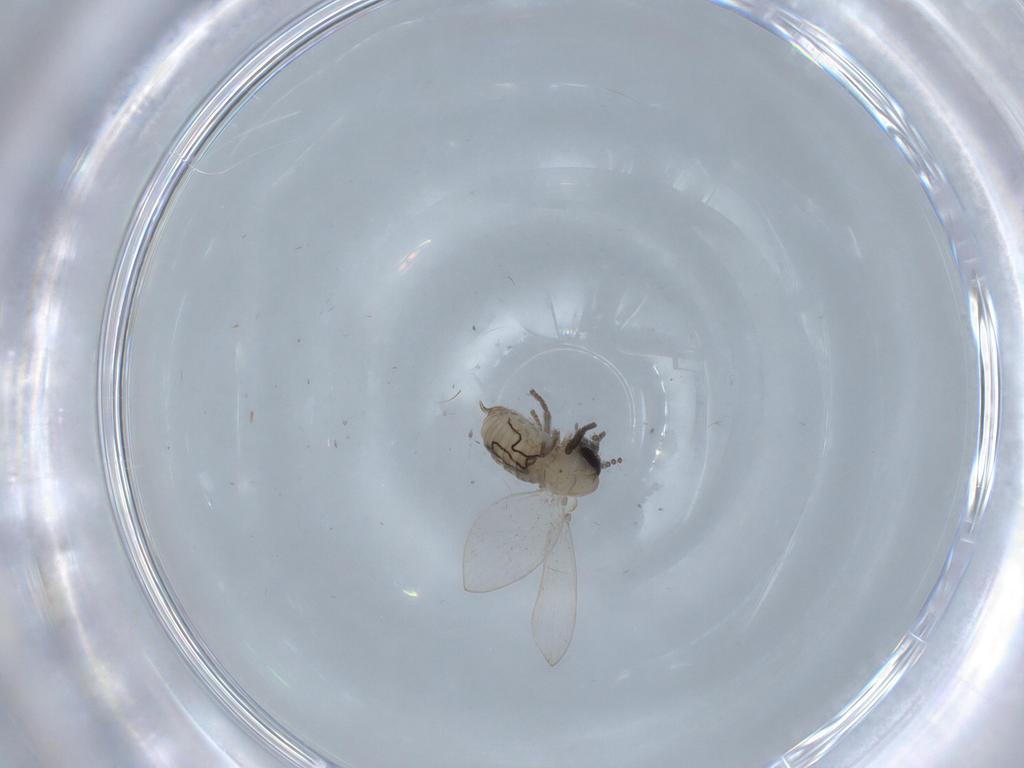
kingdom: Animalia
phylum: Arthropoda
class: Insecta
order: Diptera
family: Psychodidae
